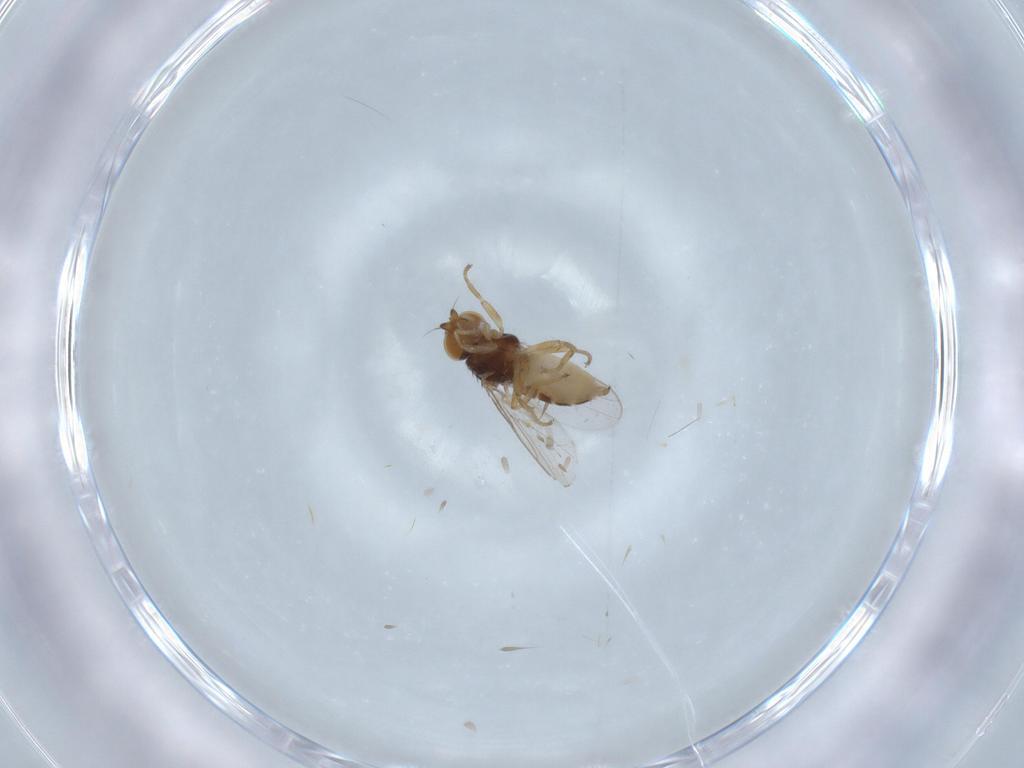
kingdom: Animalia
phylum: Arthropoda
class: Insecta
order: Diptera
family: Chloropidae
